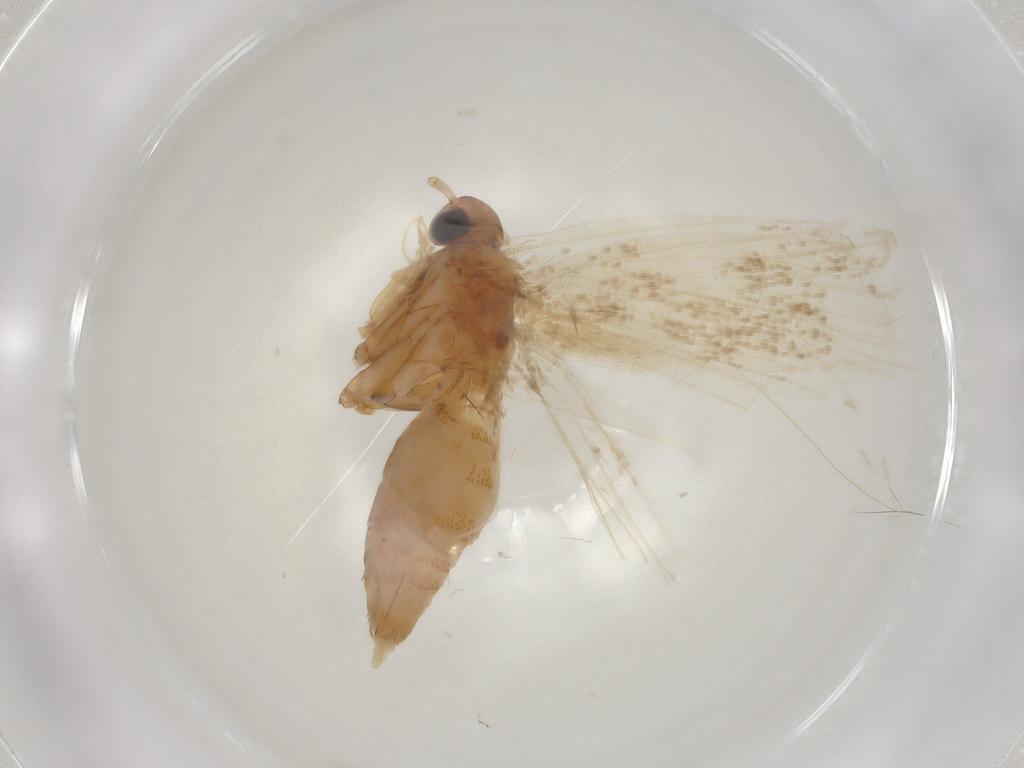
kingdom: Animalia
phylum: Arthropoda
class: Insecta
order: Lepidoptera
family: Lecithoceridae
